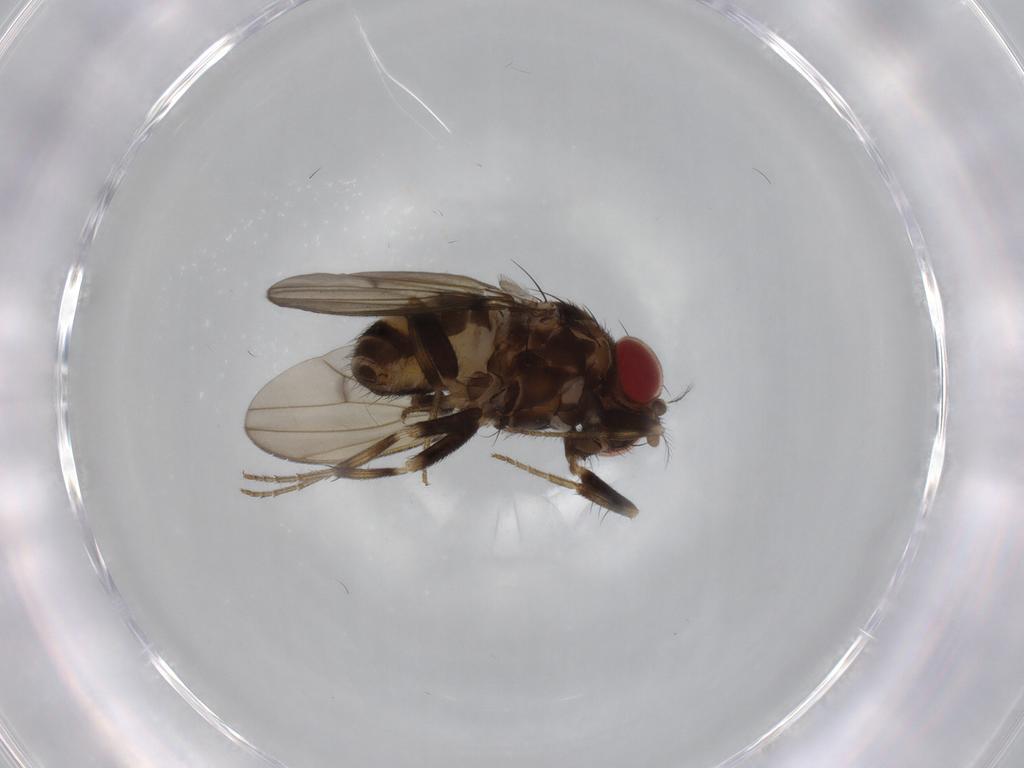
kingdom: Animalia
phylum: Arthropoda
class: Insecta
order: Diptera
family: Drosophilidae
